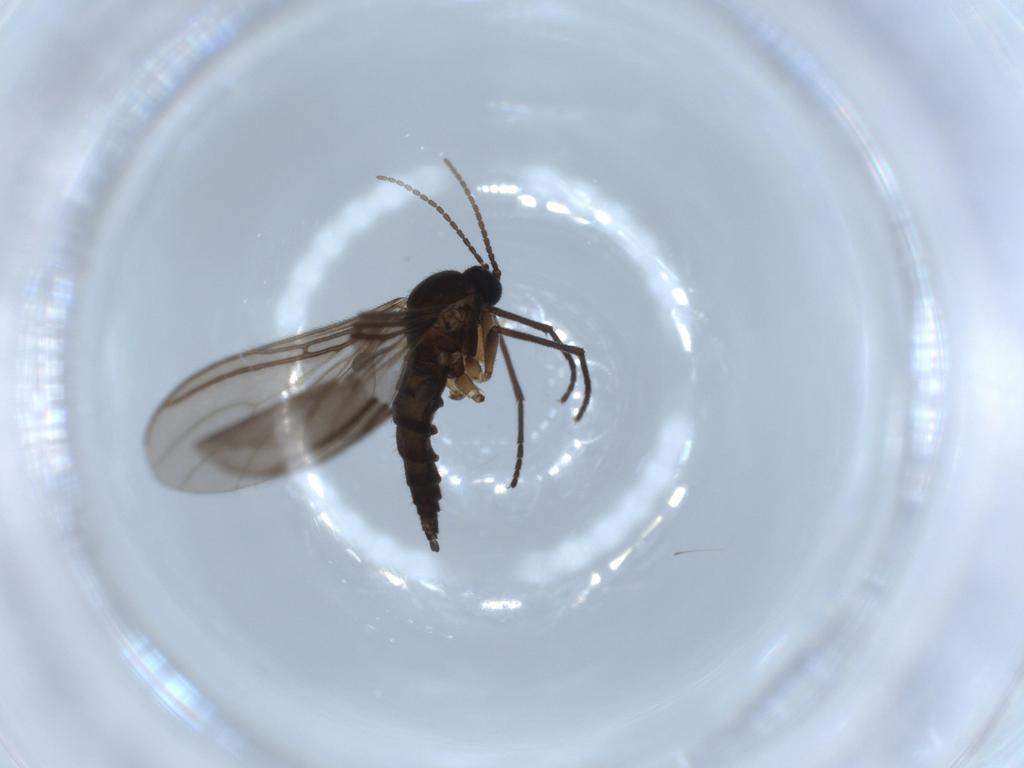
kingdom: Animalia
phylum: Arthropoda
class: Insecta
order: Diptera
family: Sciaridae
